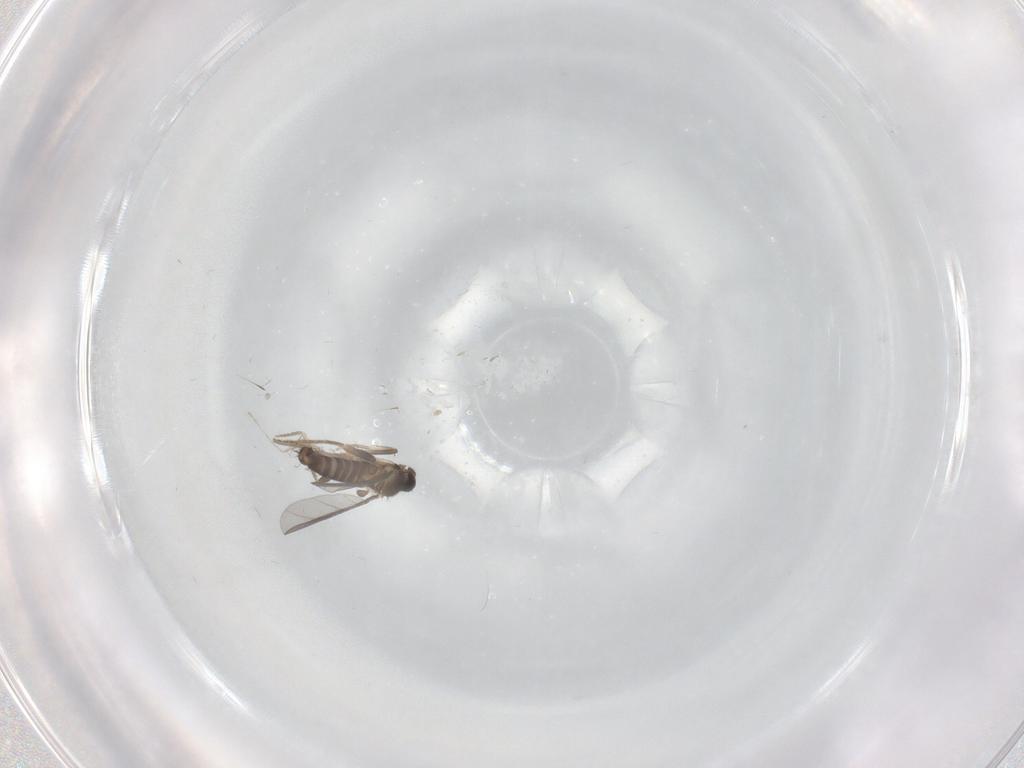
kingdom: Animalia
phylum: Arthropoda
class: Insecta
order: Diptera
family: Cecidomyiidae
